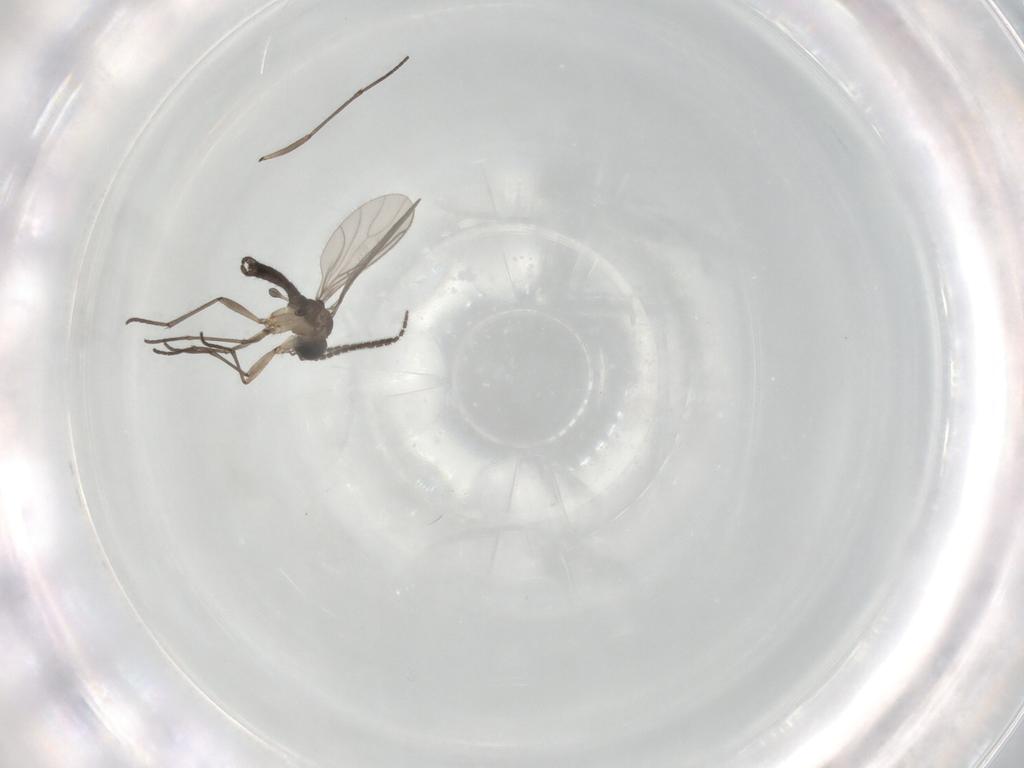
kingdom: Animalia
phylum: Arthropoda
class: Insecta
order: Diptera
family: Sciaridae
